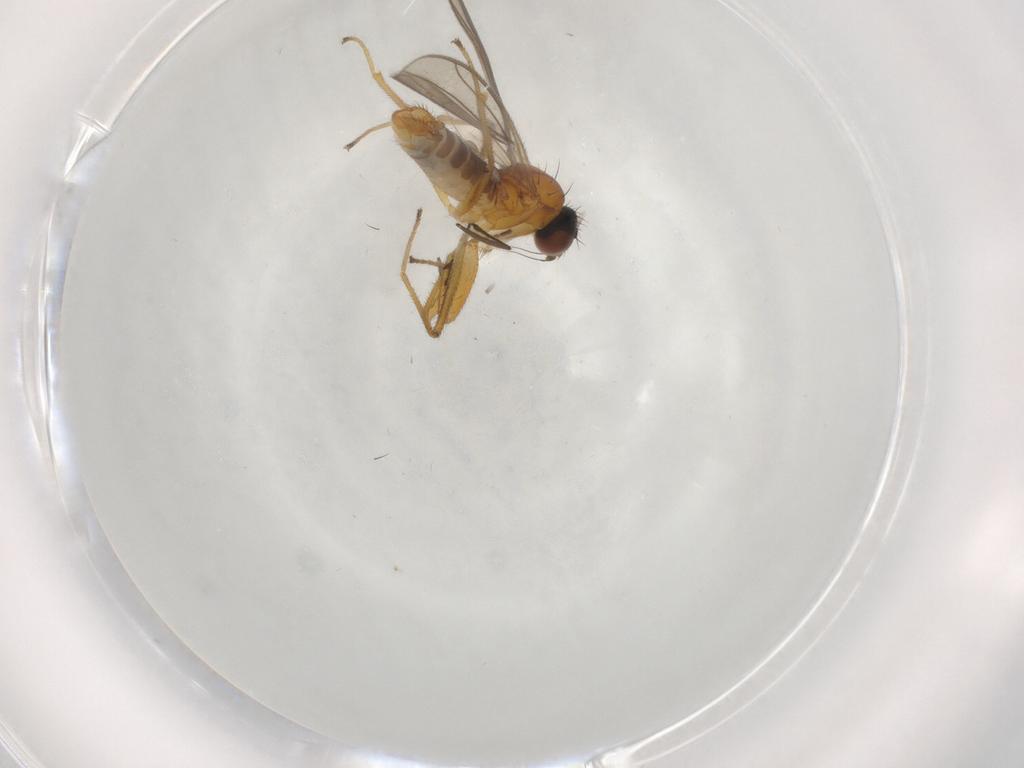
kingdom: Animalia
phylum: Arthropoda
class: Insecta
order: Diptera
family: Empididae
